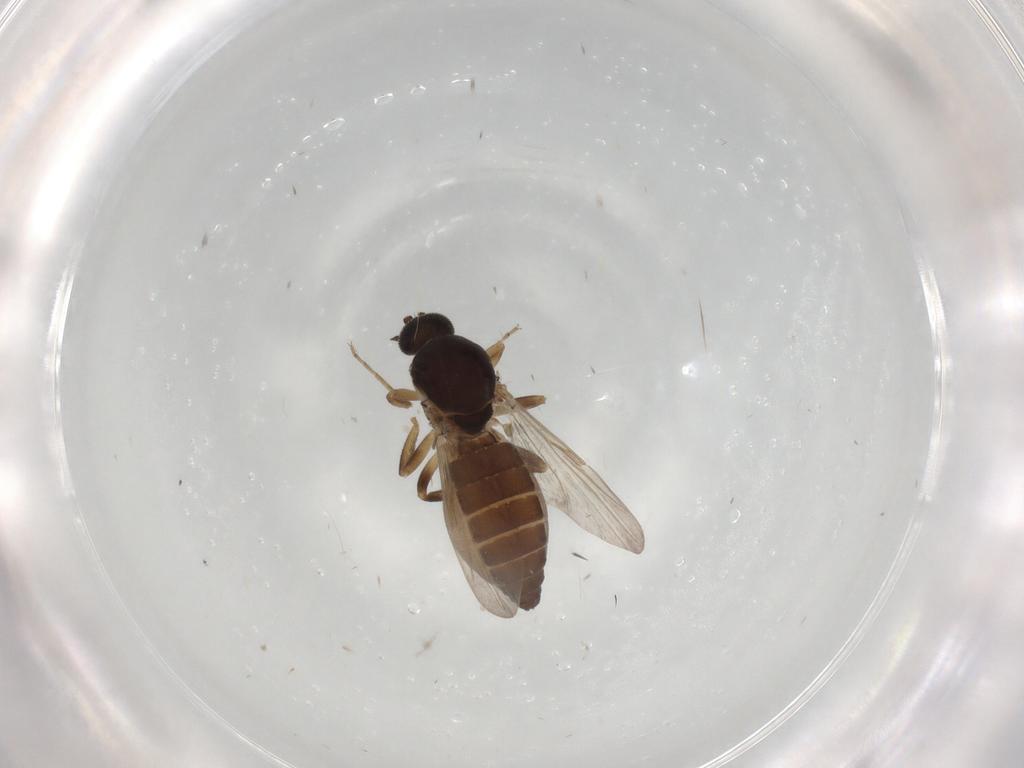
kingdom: Animalia
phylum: Arthropoda
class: Insecta
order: Diptera
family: Ceratopogonidae
